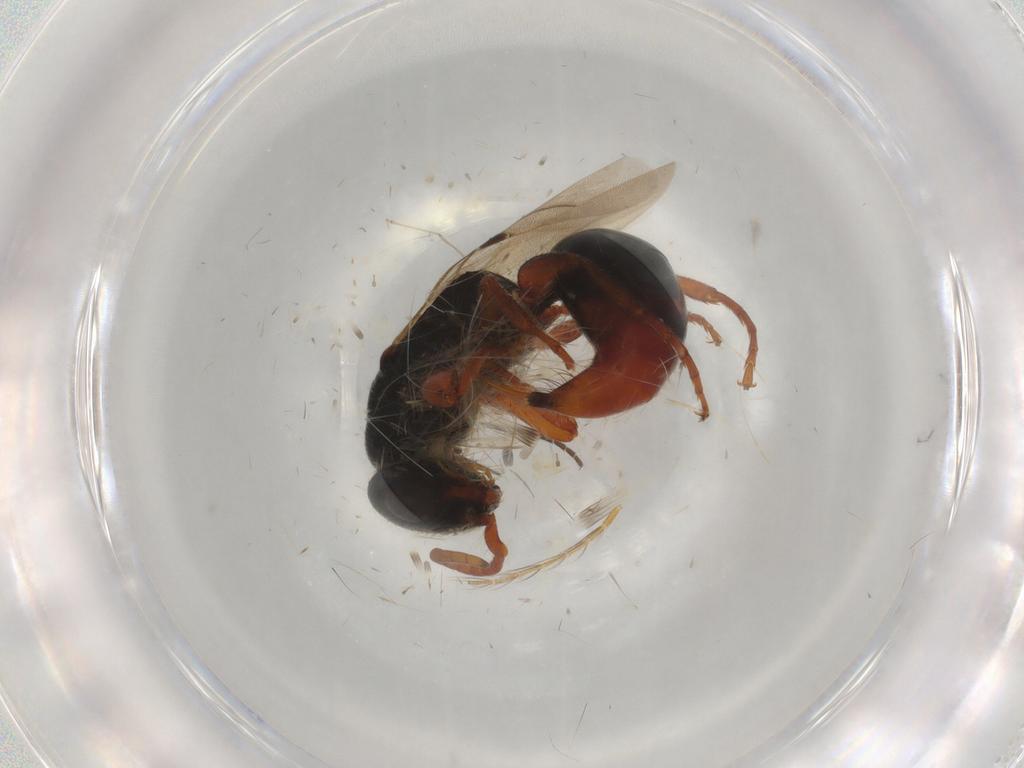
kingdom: Animalia
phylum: Arthropoda
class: Insecta
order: Hymenoptera
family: Bethylidae
